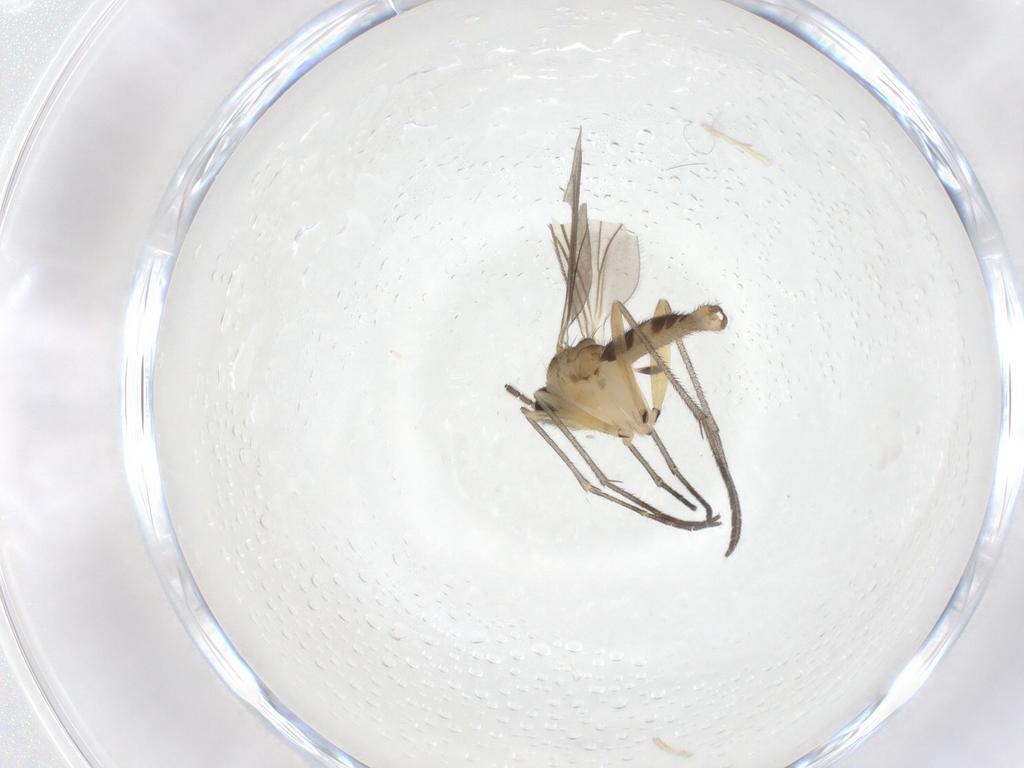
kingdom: Animalia
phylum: Arthropoda
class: Insecta
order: Diptera
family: Sciaridae
